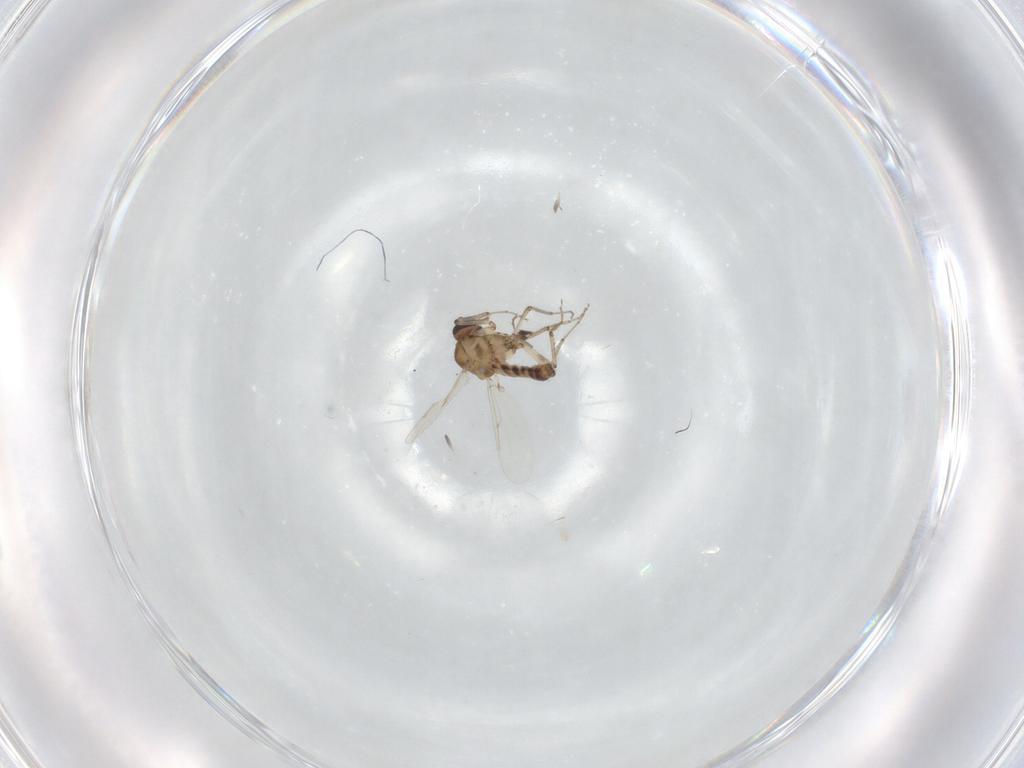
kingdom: Animalia
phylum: Arthropoda
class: Insecta
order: Diptera
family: Ceratopogonidae
